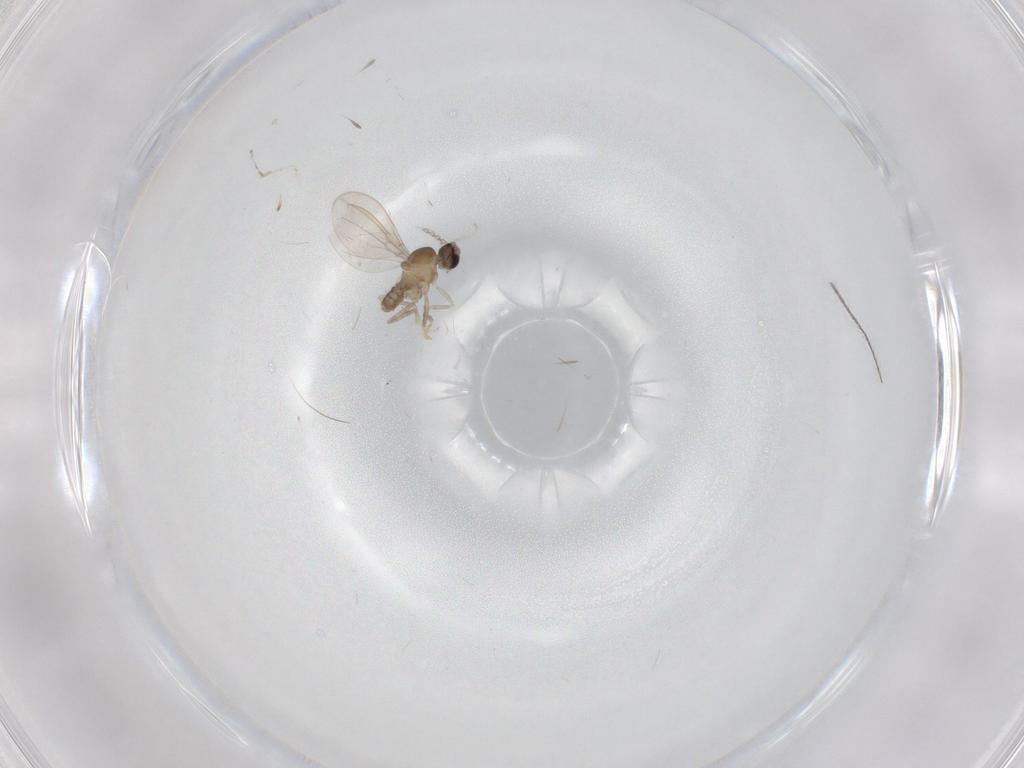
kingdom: Animalia
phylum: Arthropoda
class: Insecta
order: Diptera
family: Cecidomyiidae
